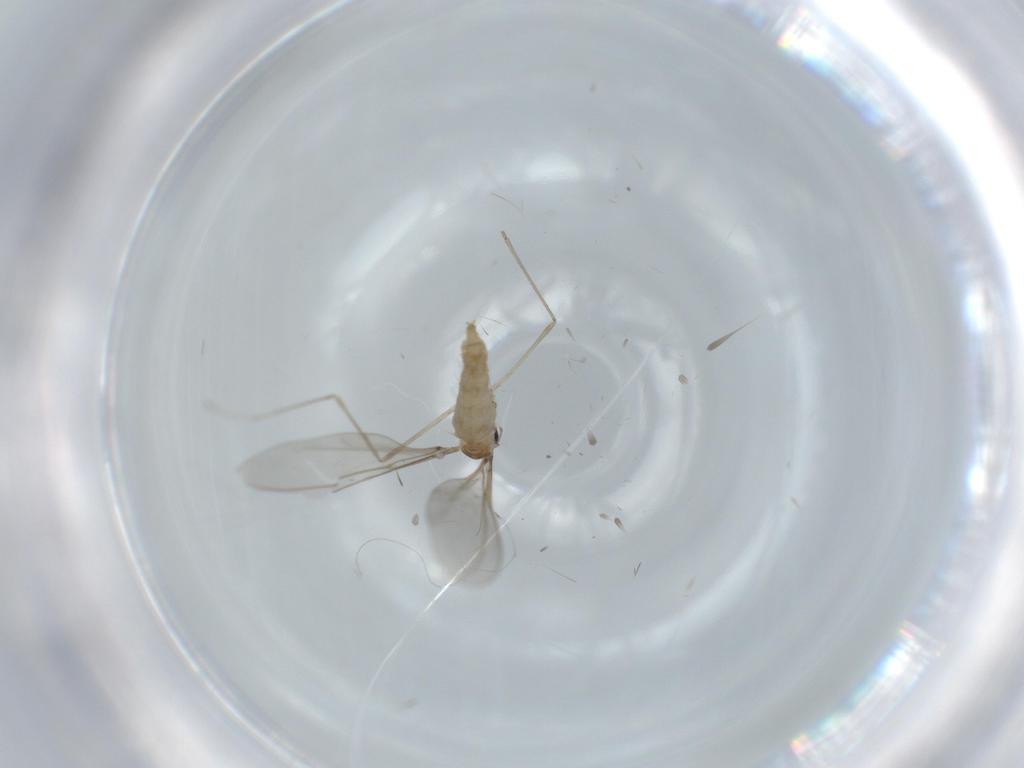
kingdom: Animalia
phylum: Arthropoda
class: Insecta
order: Diptera
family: Cecidomyiidae
